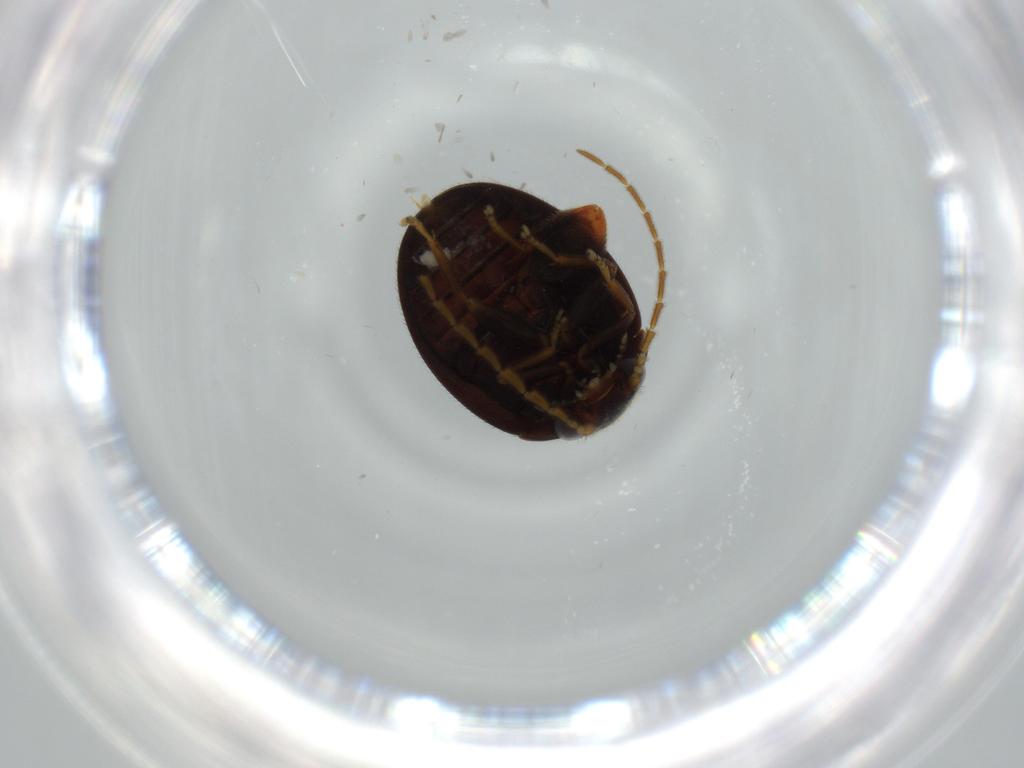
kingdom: Animalia
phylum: Arthropoda
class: Insecta
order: Coleoptera
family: Scirtidae
